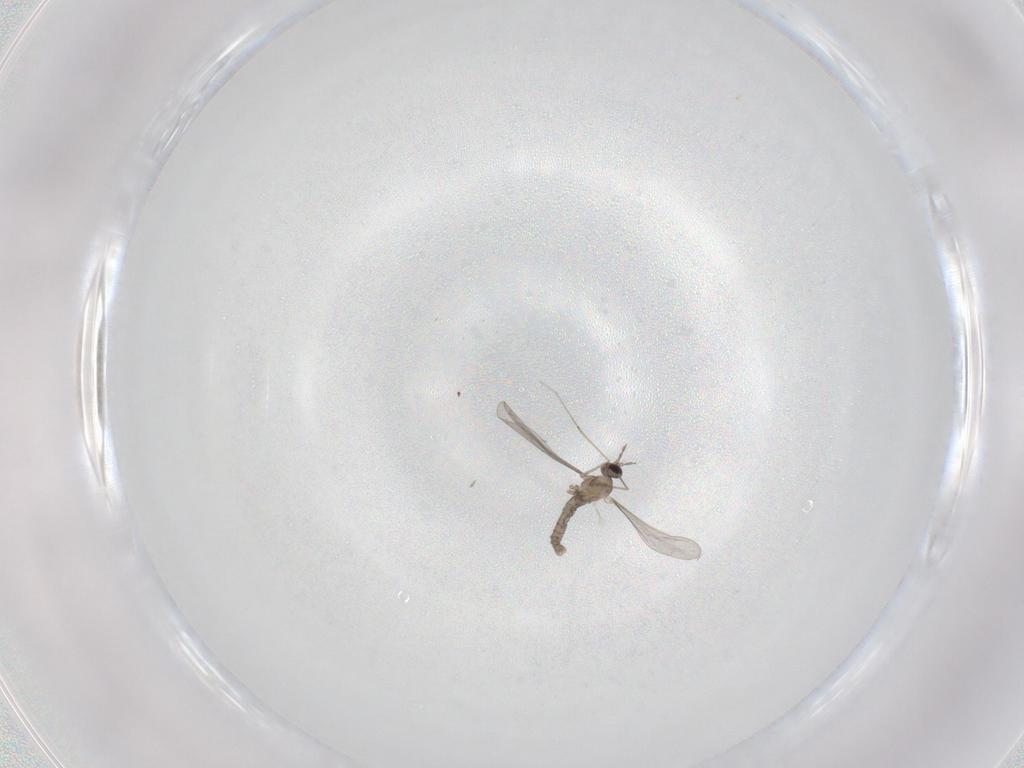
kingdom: Animalia
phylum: Arthropoda
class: Insecta
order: Diptera
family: Cecidomyiidae
